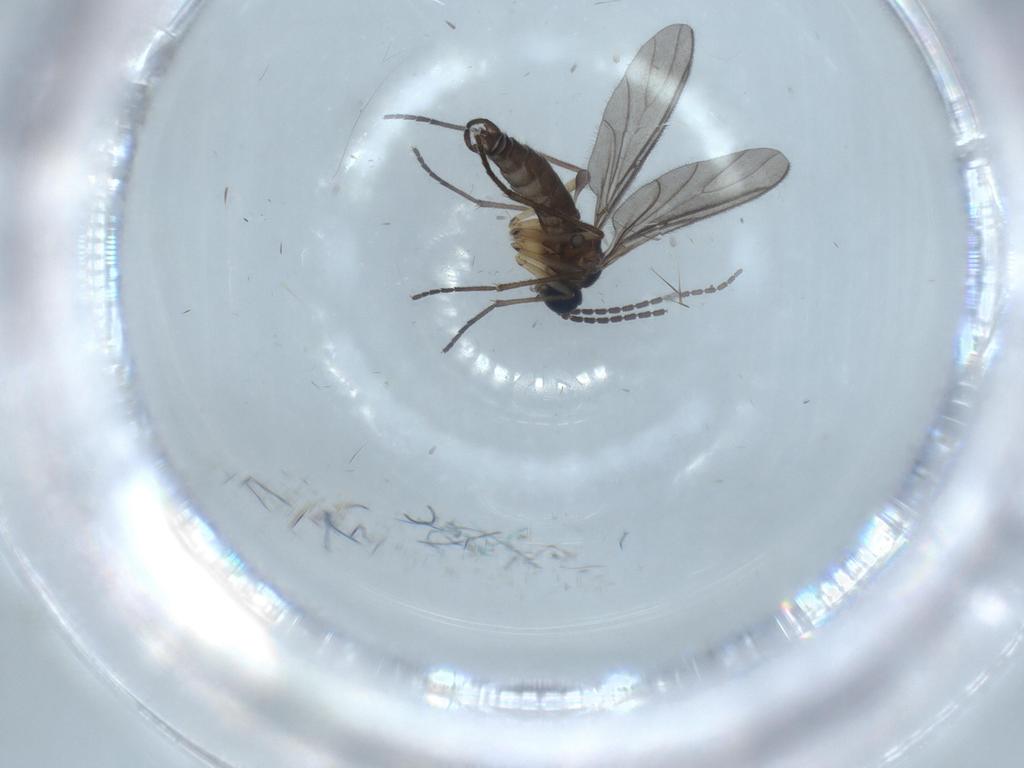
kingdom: Animalia
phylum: Arthropoda
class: Insecta
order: Diptera
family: Sciaridae
